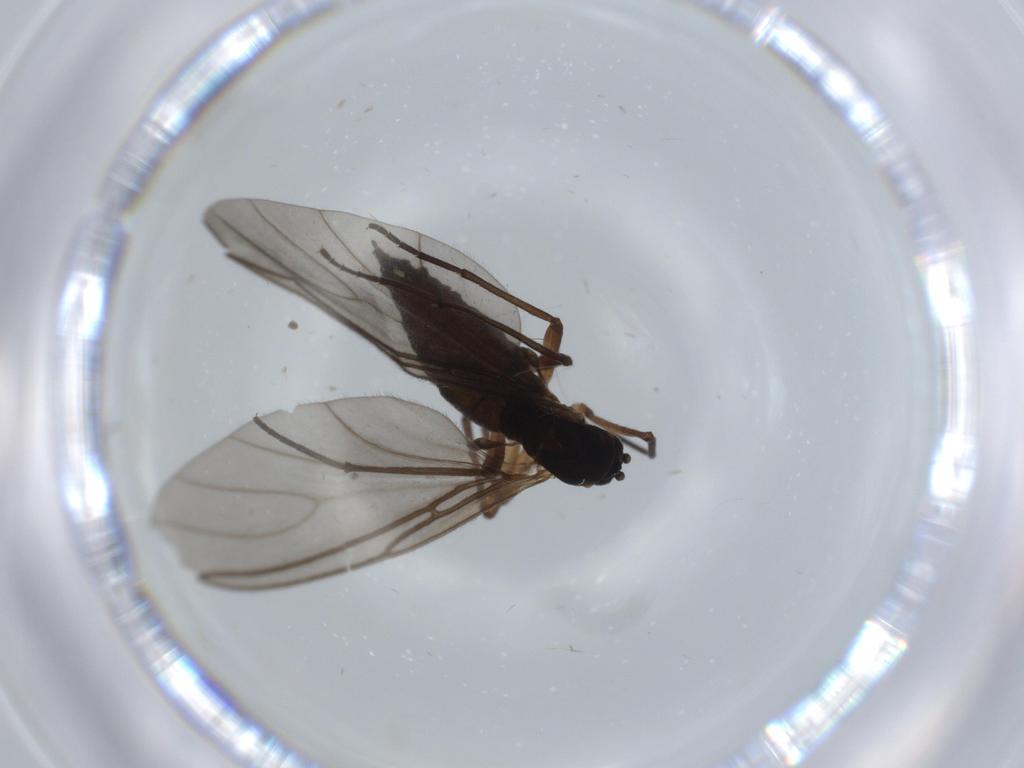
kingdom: Animalia
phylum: Arthropoda
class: Insecta
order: Diptera
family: Sciaridae
